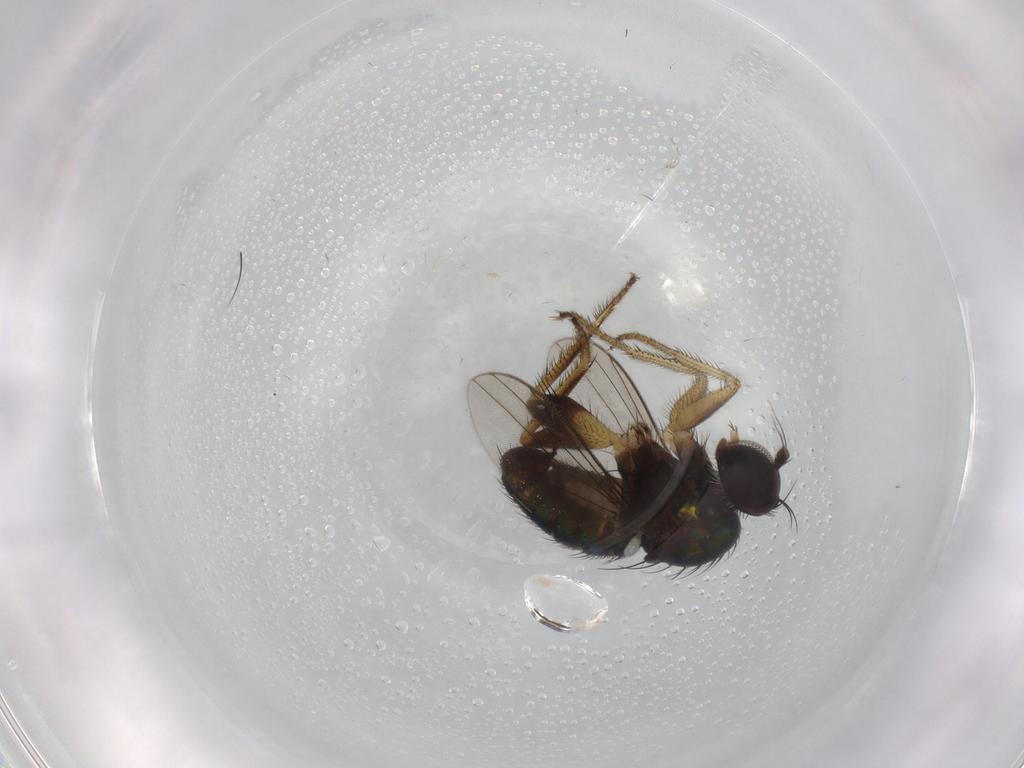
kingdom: Animalia
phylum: Arthropoda
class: Insecta
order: Diptera
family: Dolichopodidae
